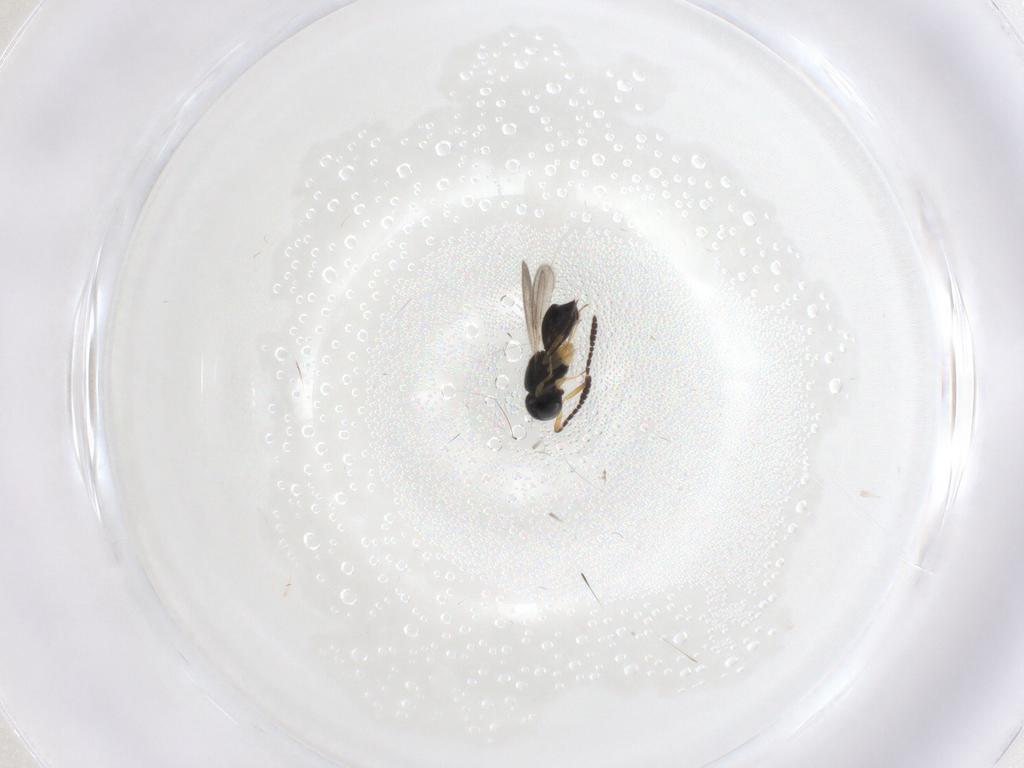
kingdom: Animalia
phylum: Arthropoda
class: Insecta
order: Hymenoptera
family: Scelionidae
